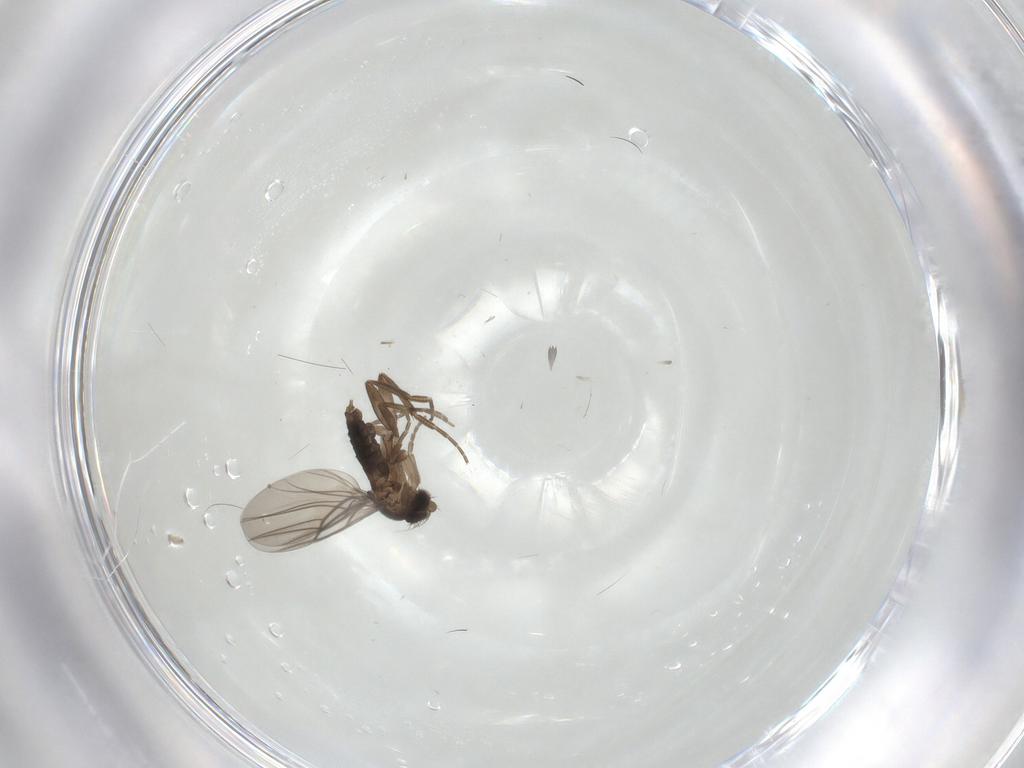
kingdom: Animalia
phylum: Arthropoda
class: Insecta
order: Diptera
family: Phoridae
